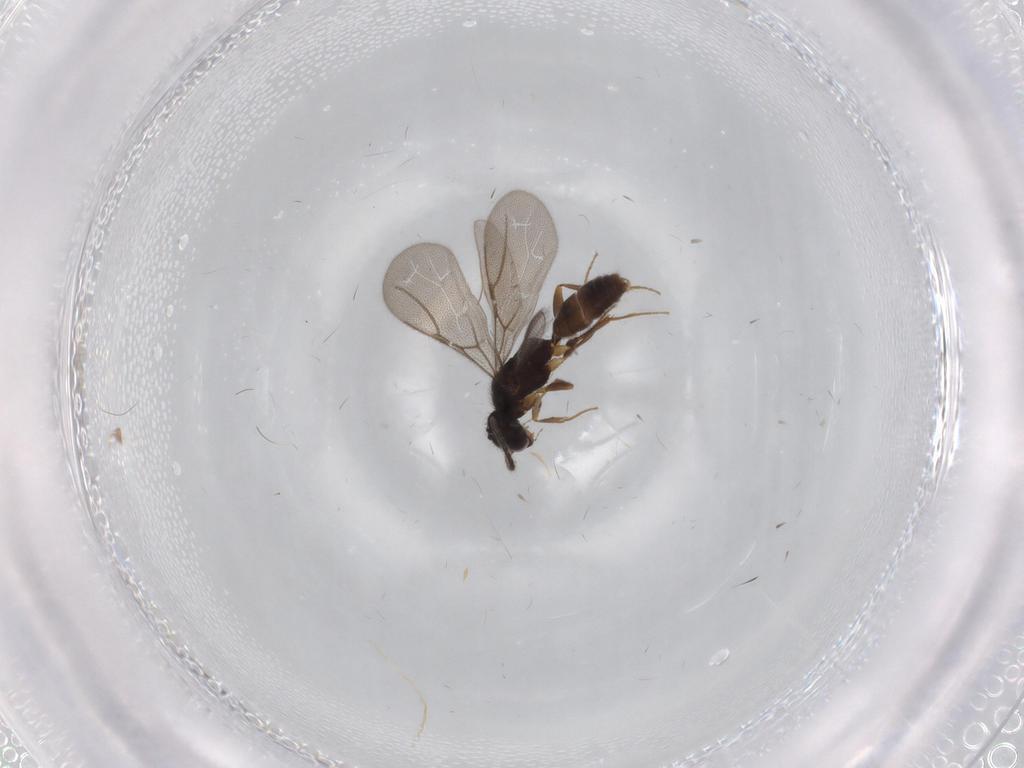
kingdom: Animalia
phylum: Arthropoda
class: Insecta
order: Hymenoptera
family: Bethylidae
